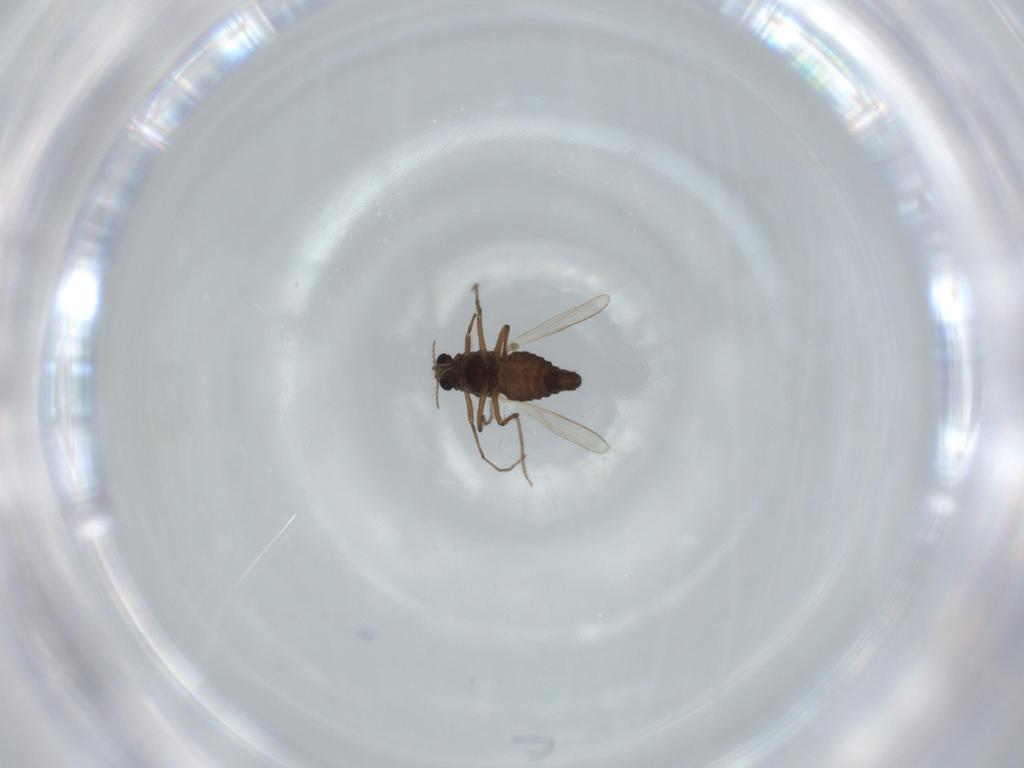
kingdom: Animalia
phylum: Arthropoda
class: Insecta
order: Diptera
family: Chironomidae
